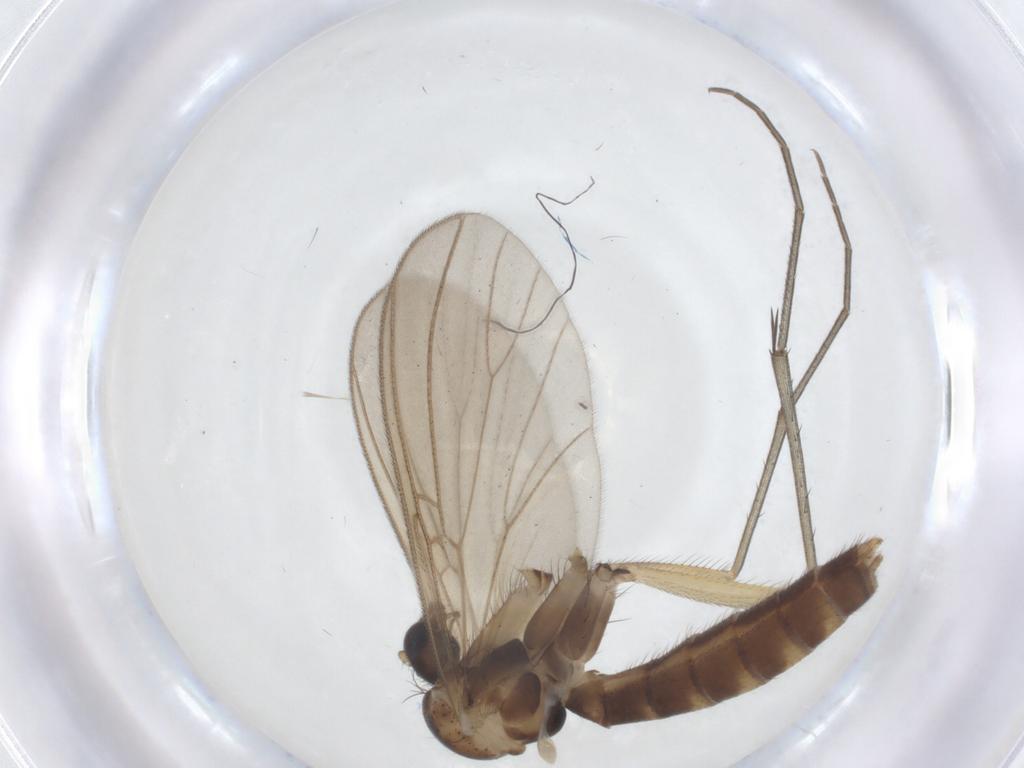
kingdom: Animalia
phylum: Arthropoda
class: Insecta
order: Diptera
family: Mycetophilidae
